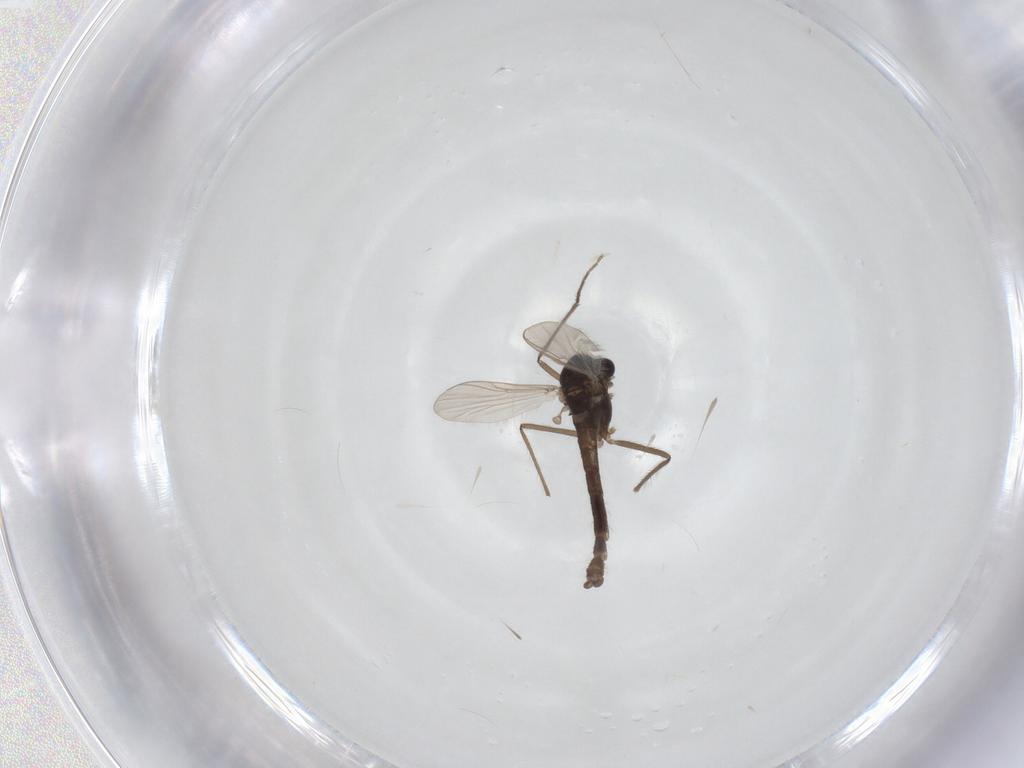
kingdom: Animalia
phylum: Arthropoda
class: Insecta
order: Diptera
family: Chironomidae
